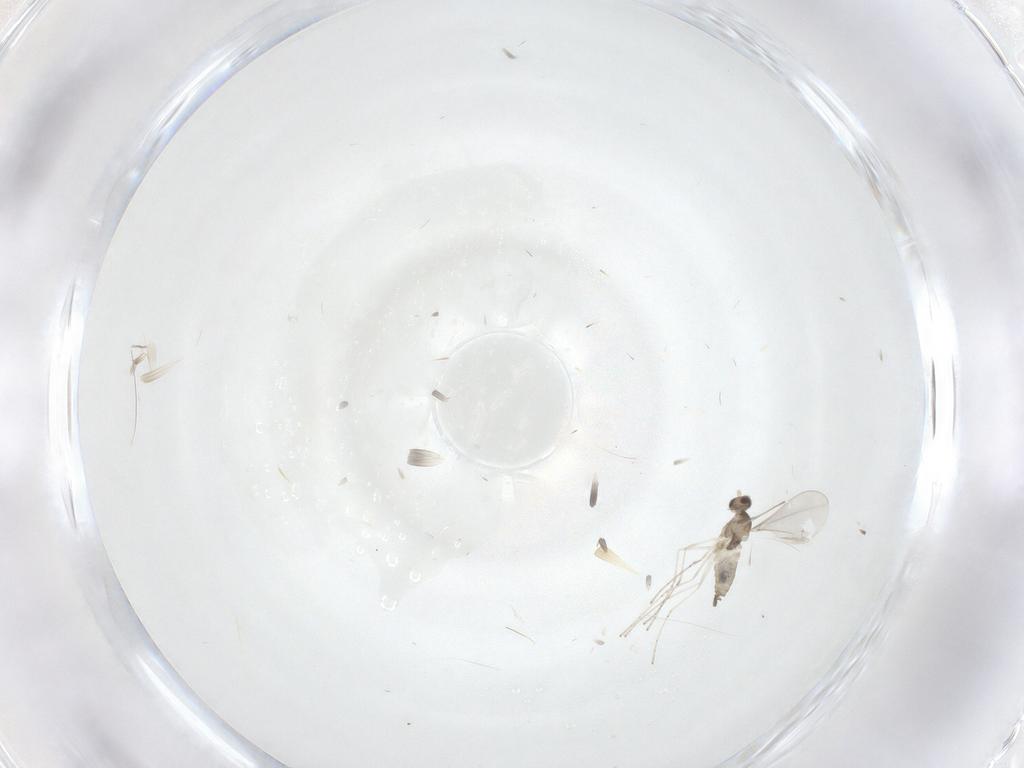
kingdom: Animalia
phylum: Arthropoda
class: Insecta
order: Diptera
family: Cecidomyiidae
